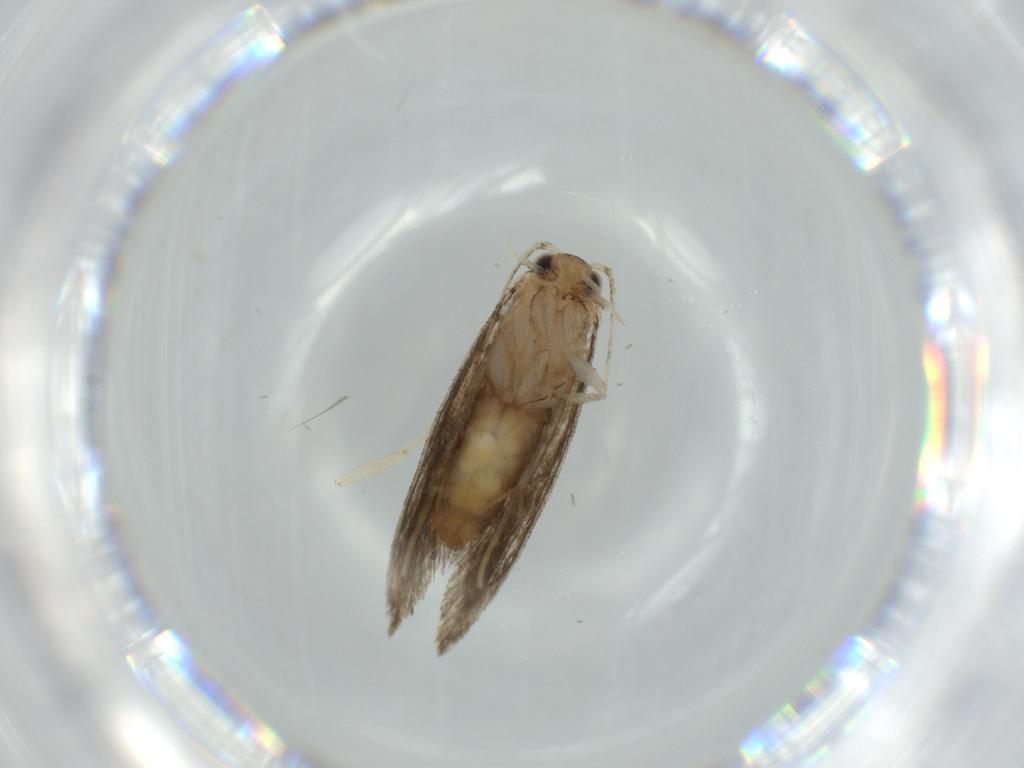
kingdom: Animalia
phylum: Arthropoda
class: Insecta
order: Lepidoptera
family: Tineidae
